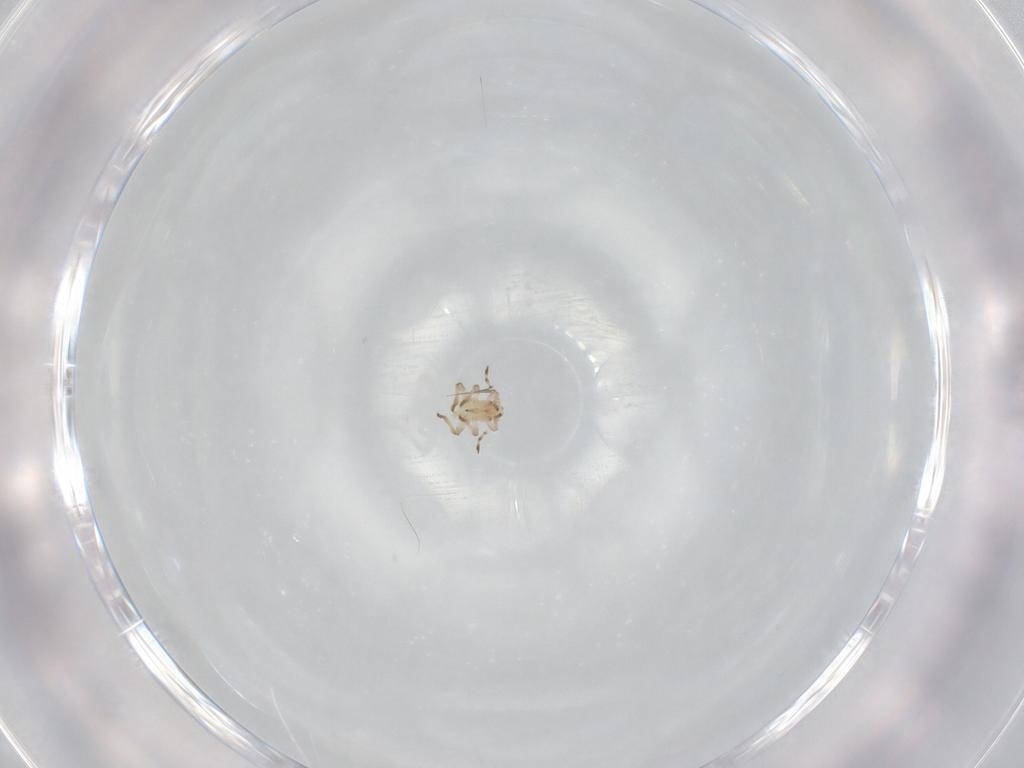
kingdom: Animalia
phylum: Arthropoda
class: Insecta
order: Hemiptera
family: Aphididae
